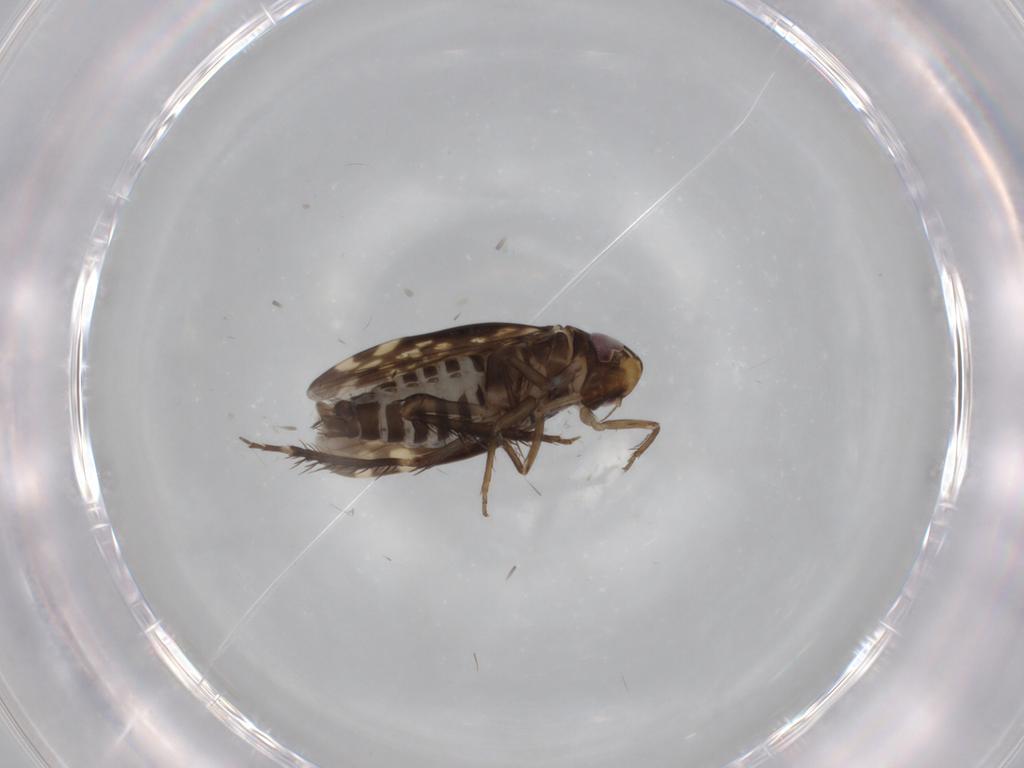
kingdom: Animalia
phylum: Arthropoda
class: Insecta
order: Hemiptera
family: Cicadellidae
